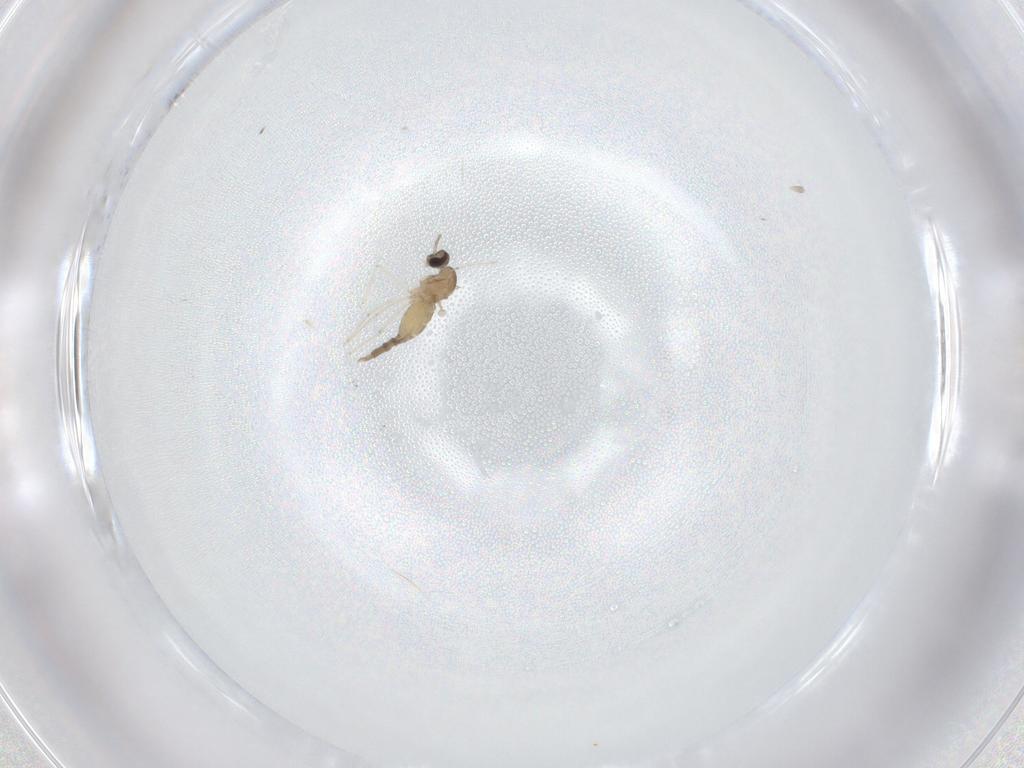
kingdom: Animalia
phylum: Arthropoda
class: Insecta
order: Diptera
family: Cecidomyiidae
